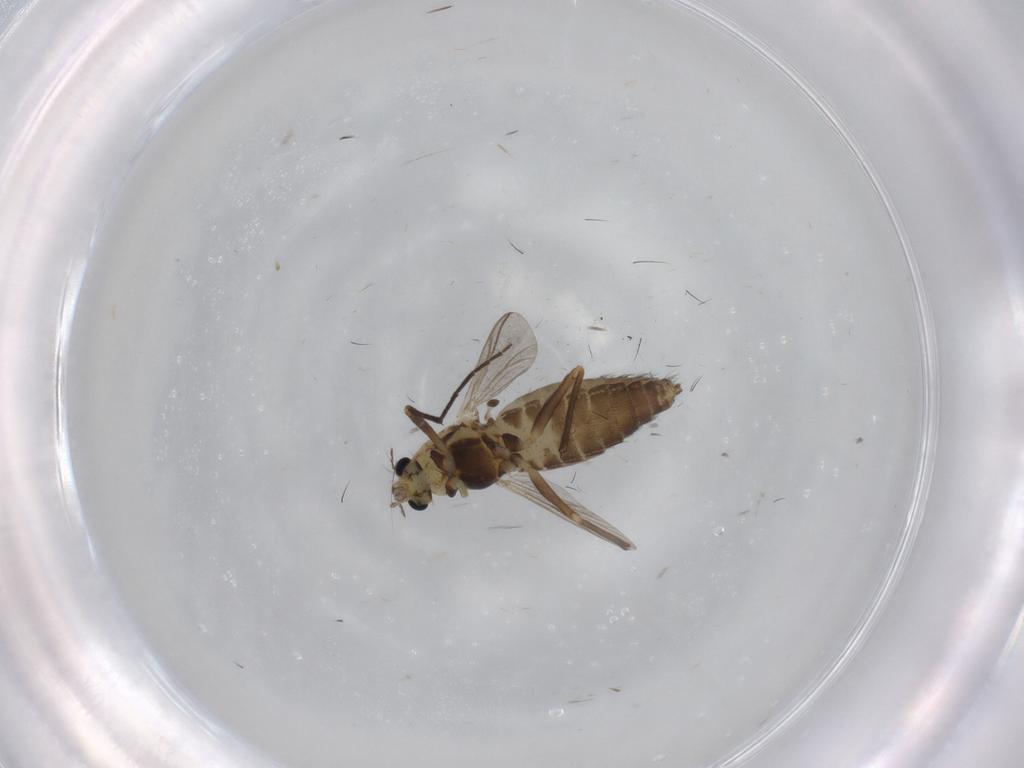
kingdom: Animalia
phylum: Arthropoda
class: Insecta
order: Diptera
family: Chironomidae
